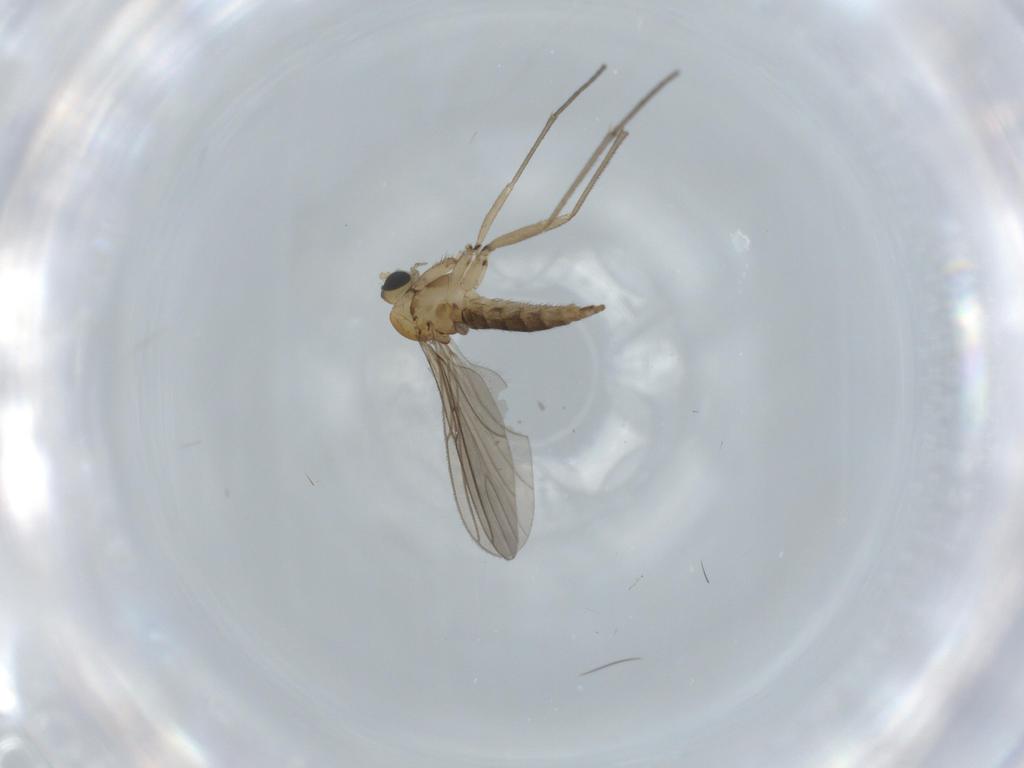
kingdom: Animalia
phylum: Arthropoda
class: Insecta
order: Diptera
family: Sciaridae
